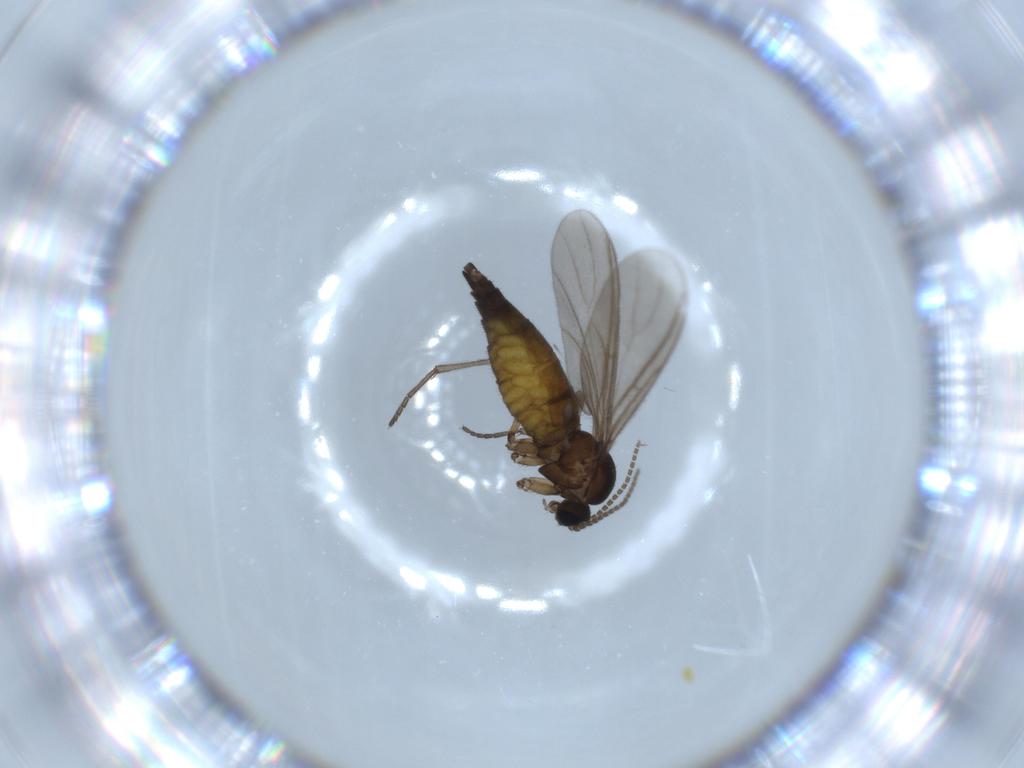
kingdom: Animalia
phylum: Arthropoda
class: Insecta
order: Diptera
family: Sciaridae
